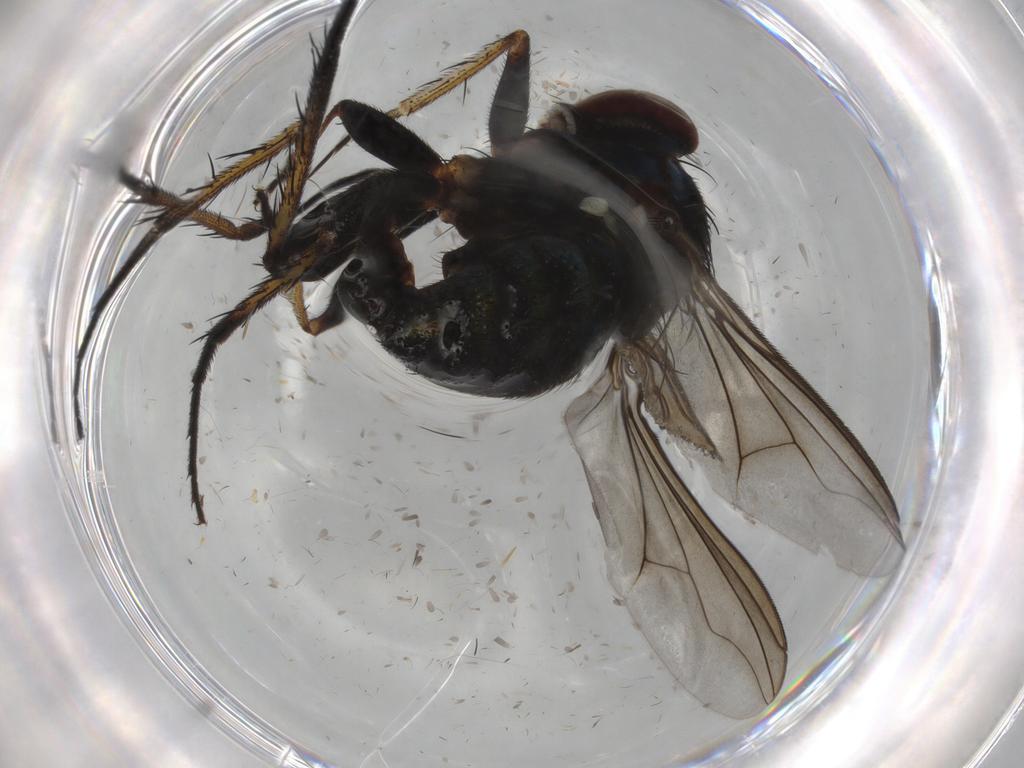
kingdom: Animalia
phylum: Arthropoda
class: Insecta
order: Diptera
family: Dolichopodidae
